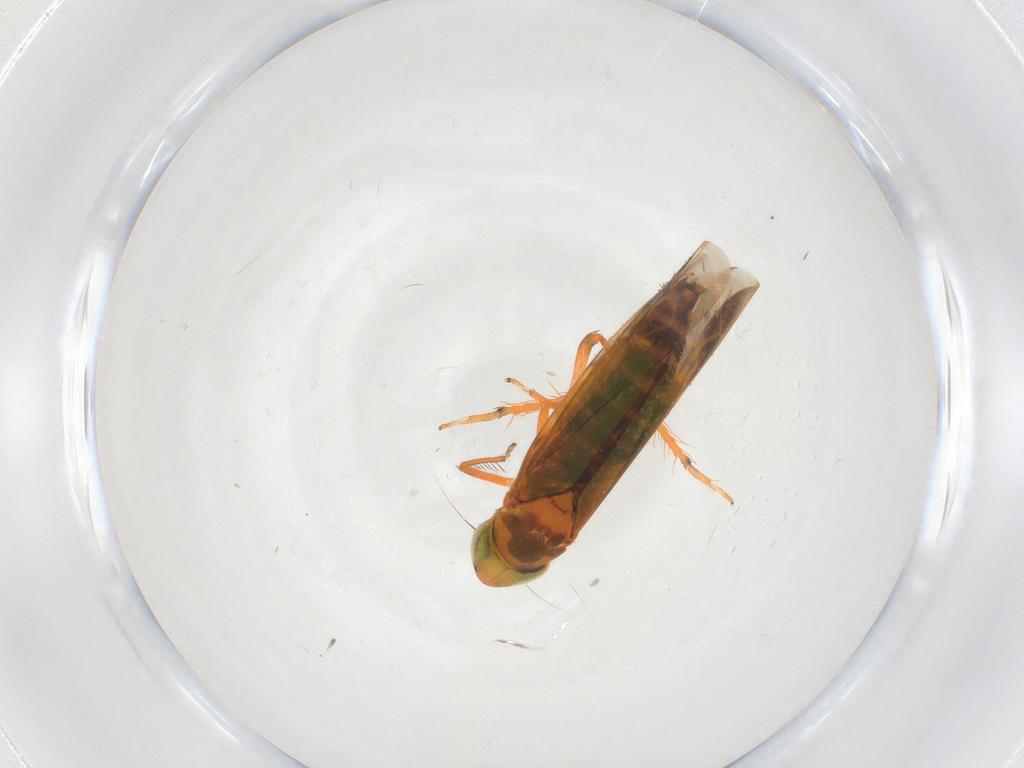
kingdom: Animalia
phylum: Arthropoda
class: Insecta
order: Hemiptera
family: Cicadellidae
